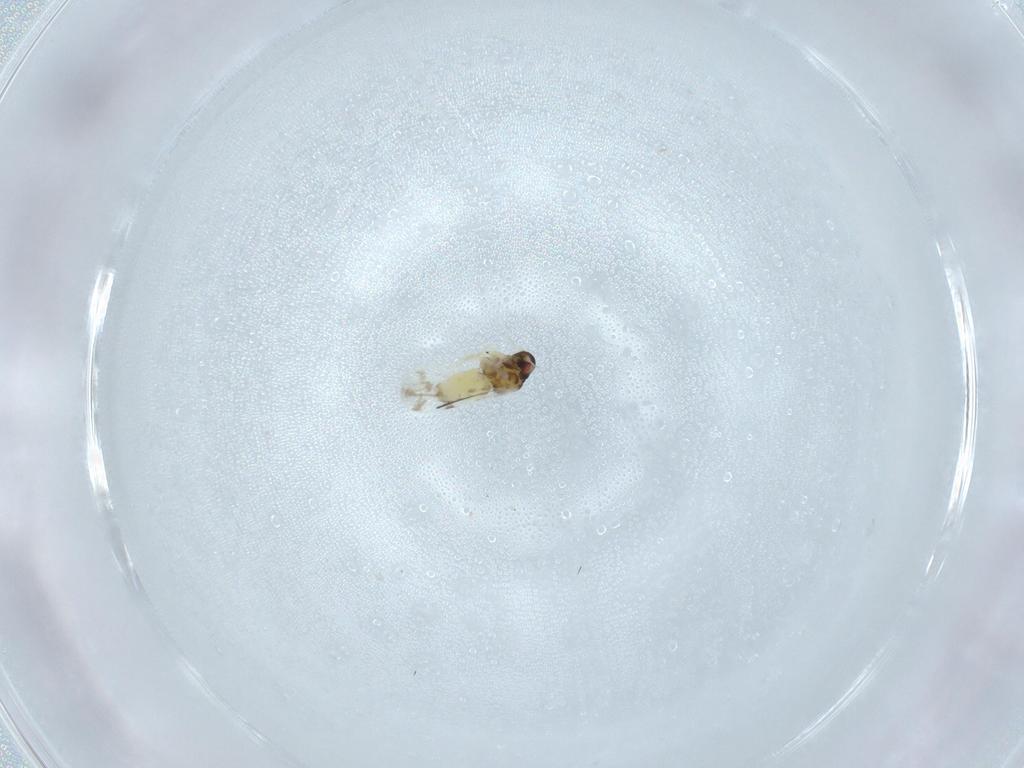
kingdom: Animalia
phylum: Arthropoda
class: Insecta
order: Hemiptera
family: Aleyrodidae
